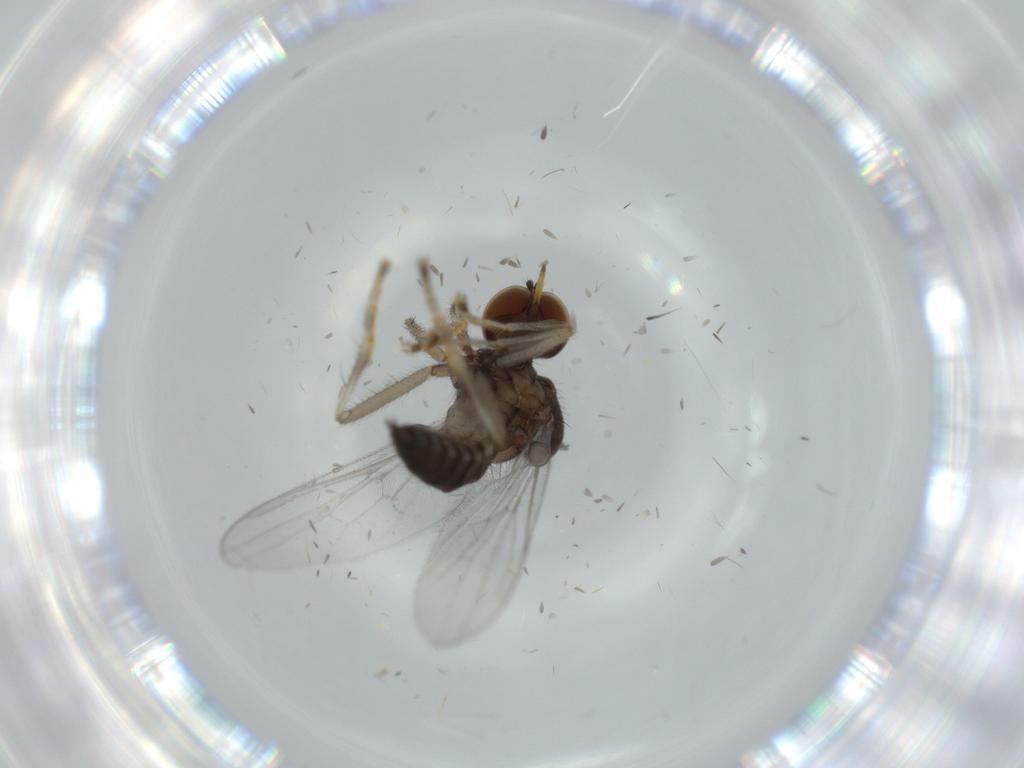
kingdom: Animalia
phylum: Arthropoda
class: Insecta
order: Diptera
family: Hybotidae
